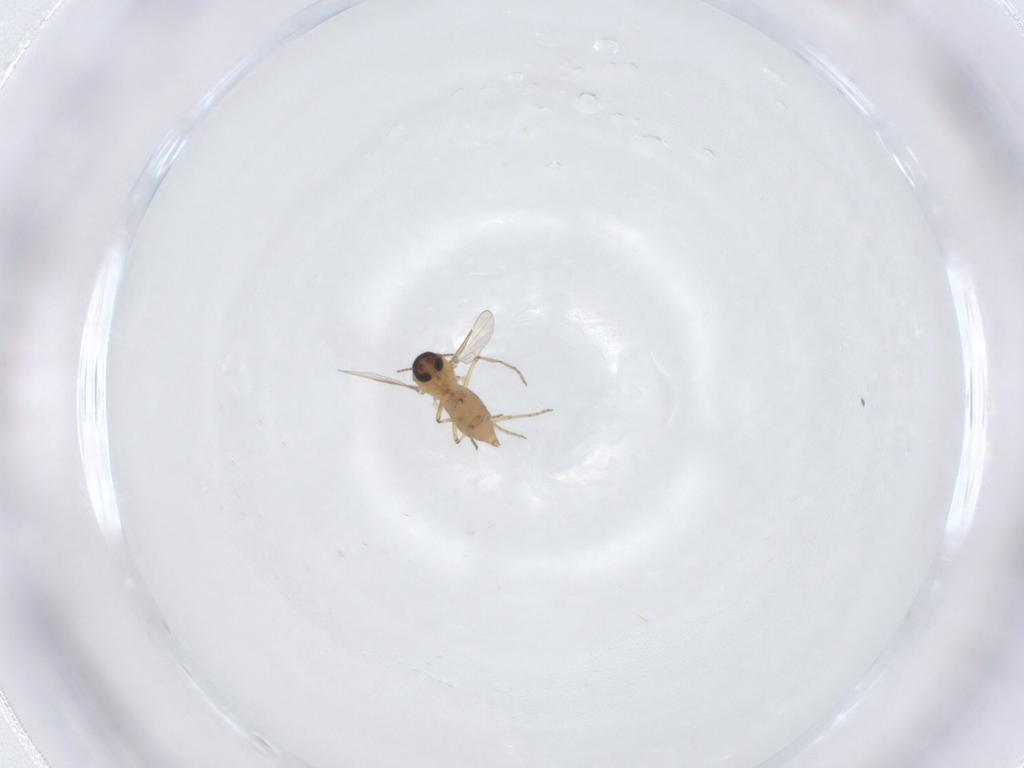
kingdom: Animalia
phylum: Arthropoda
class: Insecta
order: Diptera
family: Ceratopogonidae
